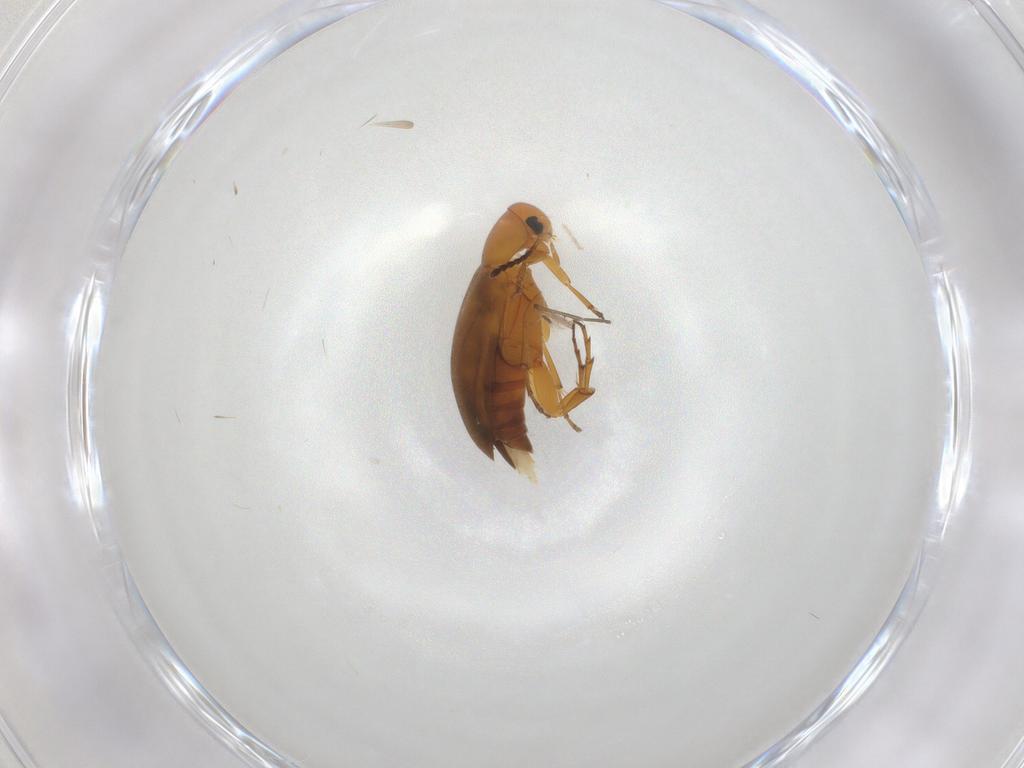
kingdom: Animalia
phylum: Arthropoda
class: Insecta
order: Coleoptera
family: Scraptiidae
